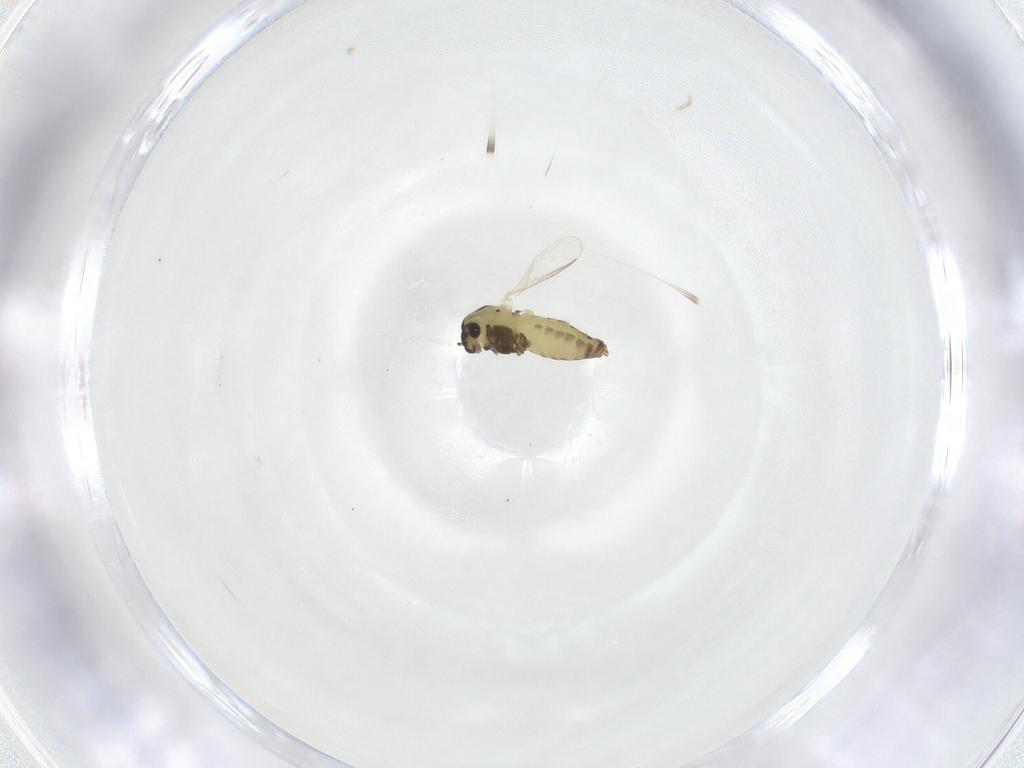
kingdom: Animalia
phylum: Arthropoda
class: Insecta
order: Diptera
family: Chironomidae
